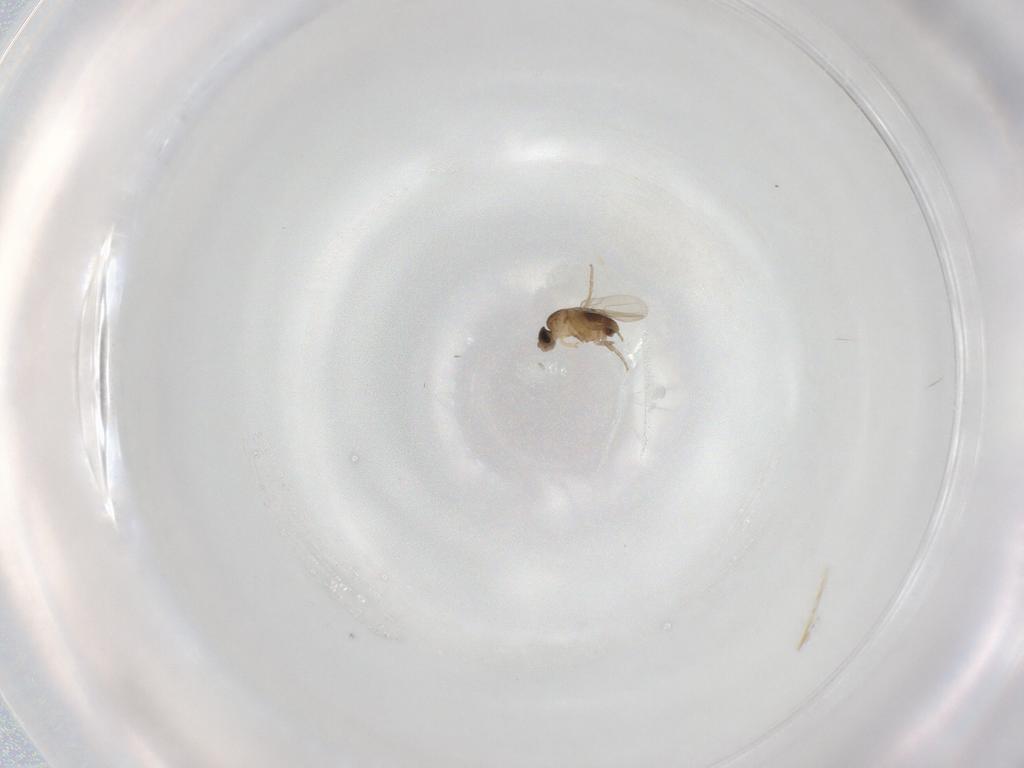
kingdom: Animalia
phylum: Arthropoda
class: Insecta
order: Diptera
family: Phoridae
